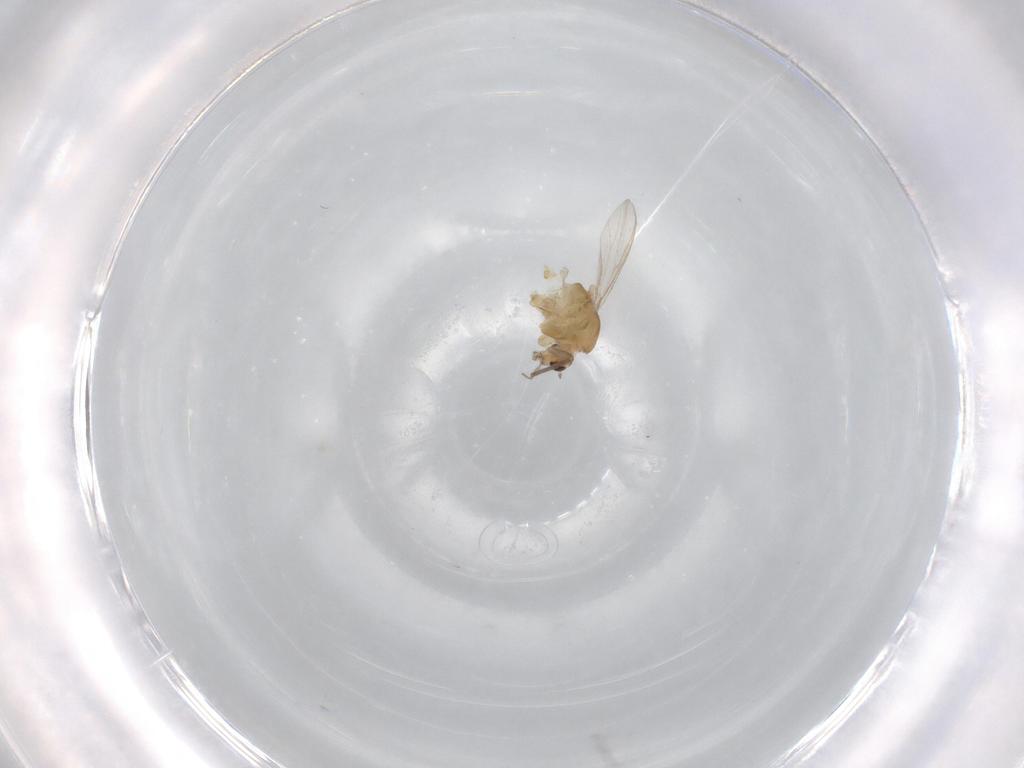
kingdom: Animalia
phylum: Arthropoda
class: Insecta
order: Diptera
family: Chironomidae
